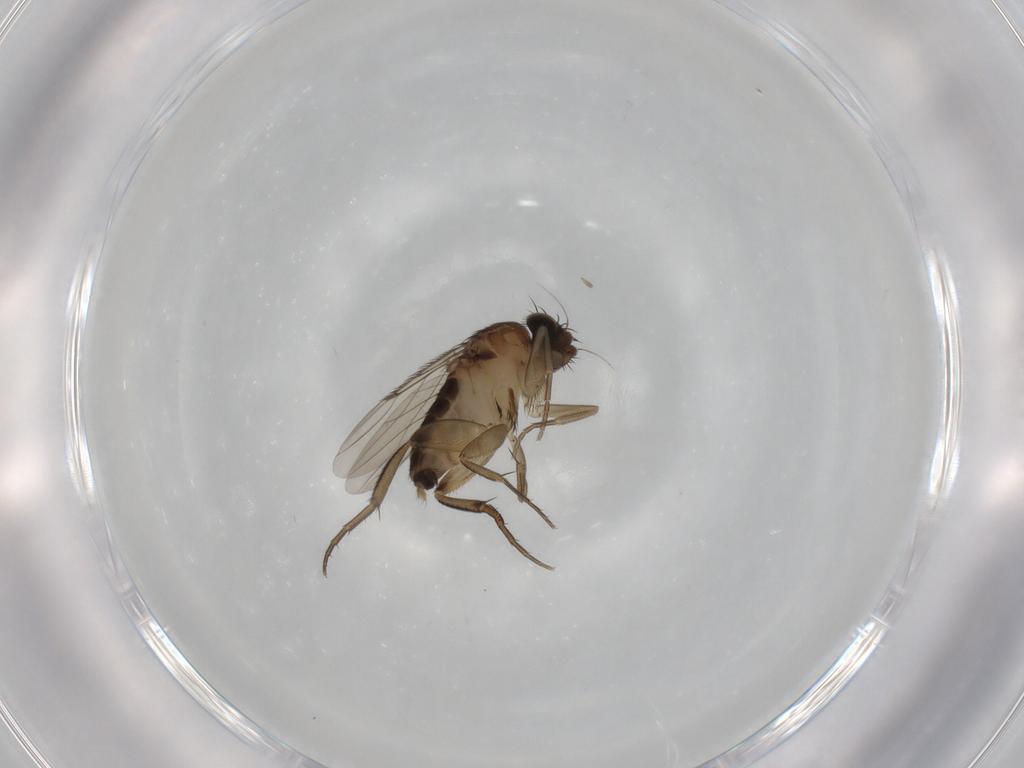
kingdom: Animalia
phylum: Arthropoda
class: Insecta
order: Diptera
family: Phoridae
